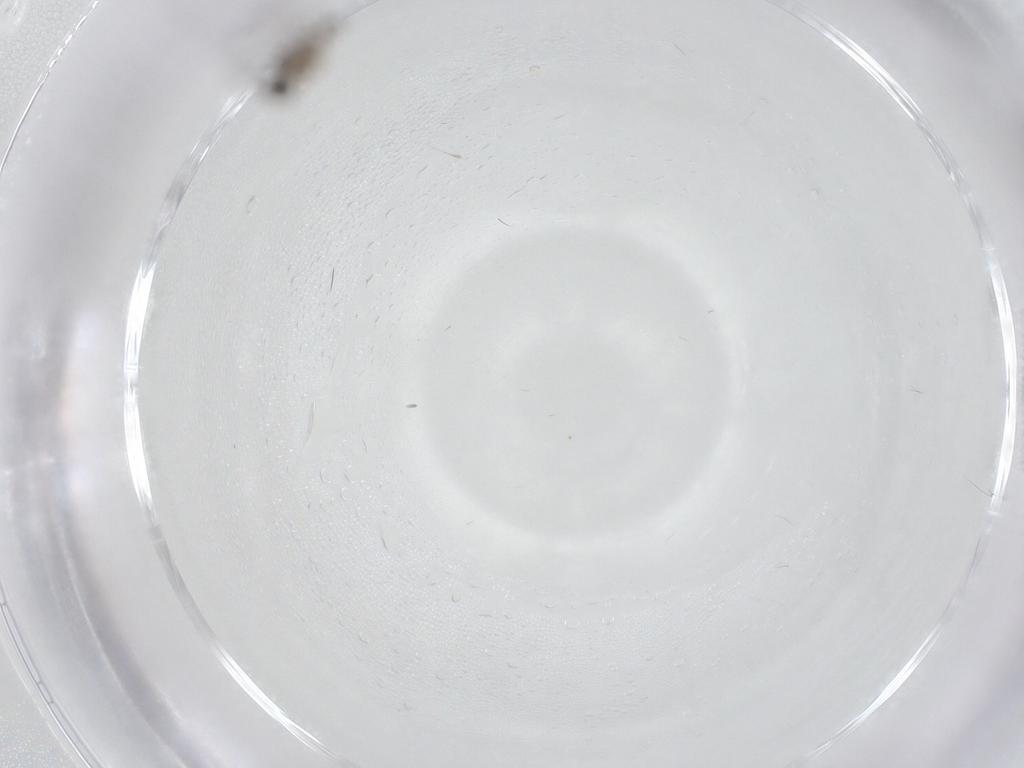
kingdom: Animalia
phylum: Arthropoda
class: Insecta
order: Diptera
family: Cecidomyiidae
